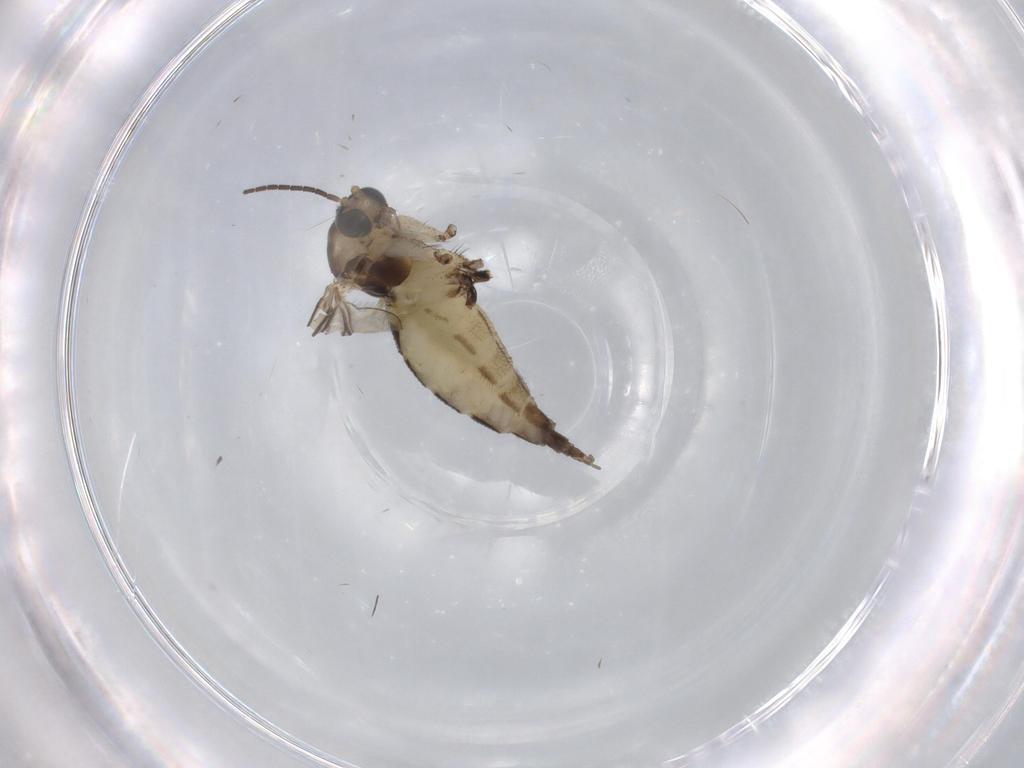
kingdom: Animalia
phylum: Arthropoda
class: Insecta
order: Diptera
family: Sciaridae
